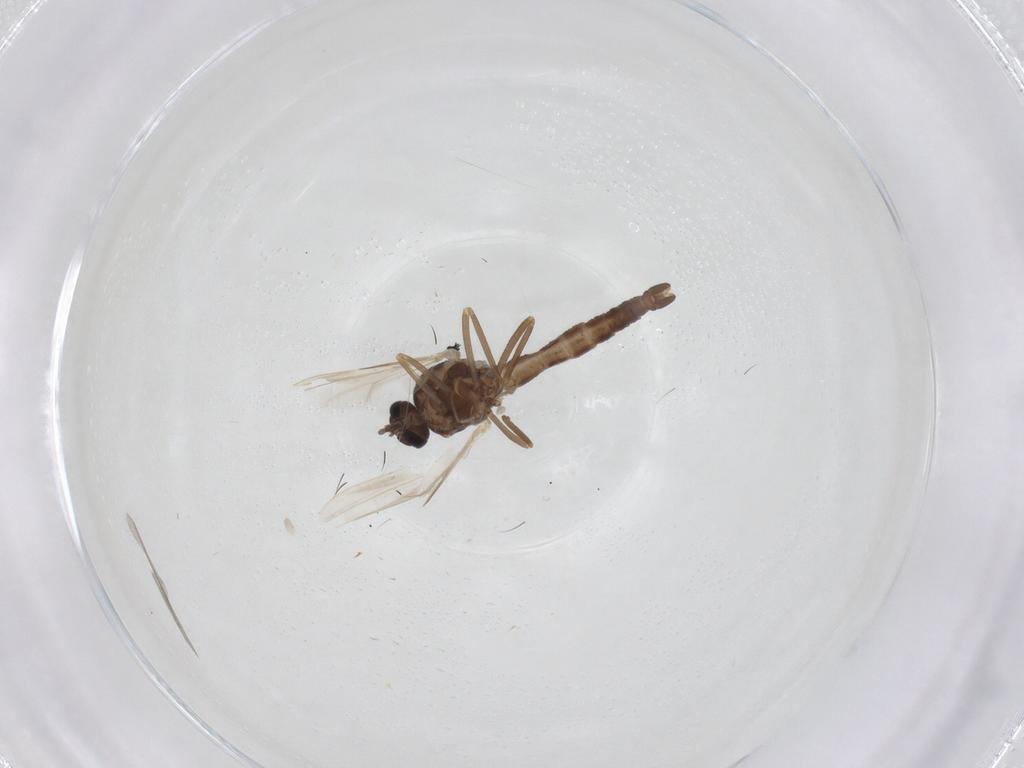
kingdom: Animalia
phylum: Arthropoda
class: Insecta
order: Diptera
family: Ceratopogonidae
